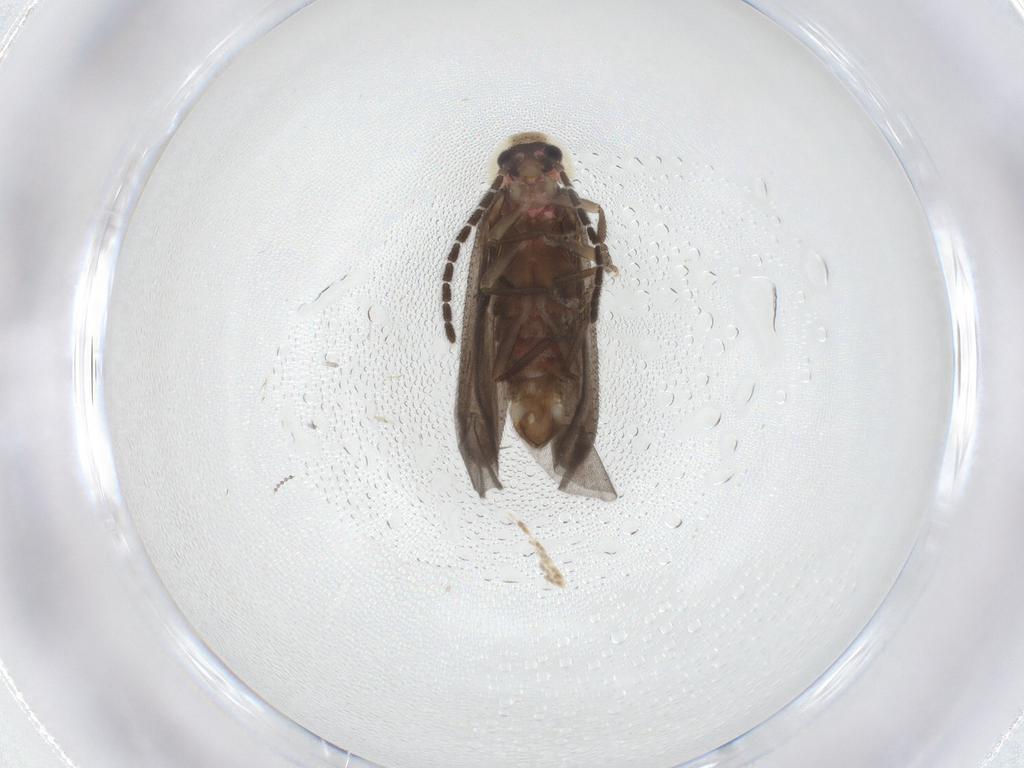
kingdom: Animalia
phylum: Arthropoda
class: Insecta
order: Coleoptera
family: Lampyridae
